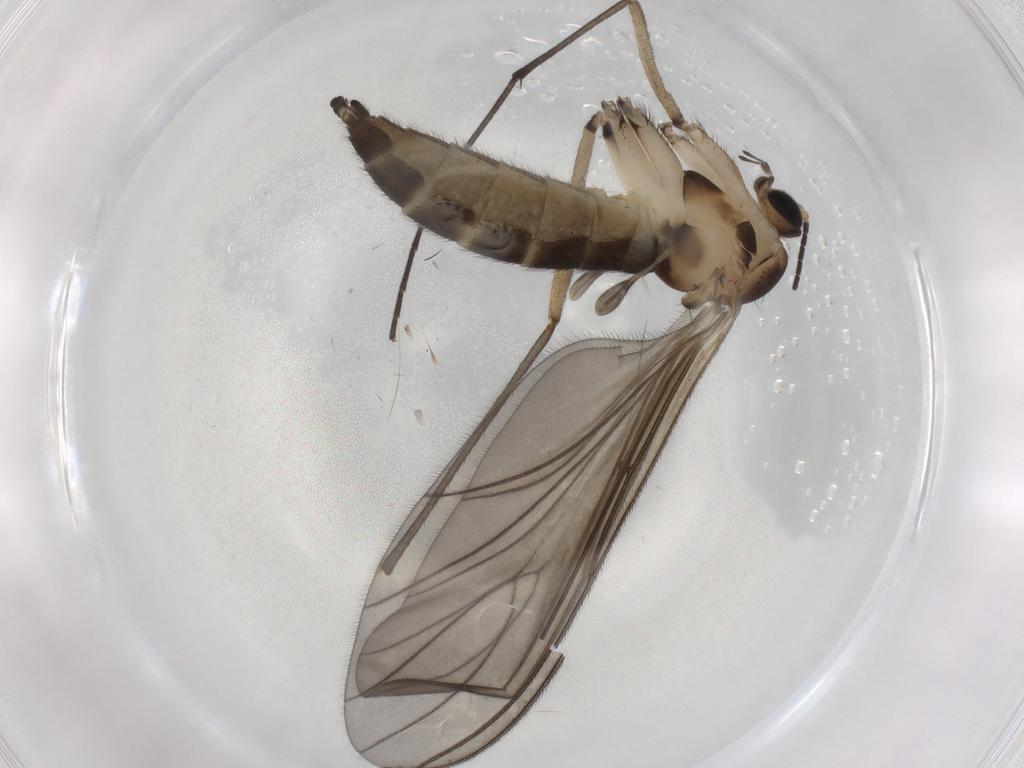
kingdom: Animalia
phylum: Arthropoda
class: Insecta
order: Diptera
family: Sciaridae
